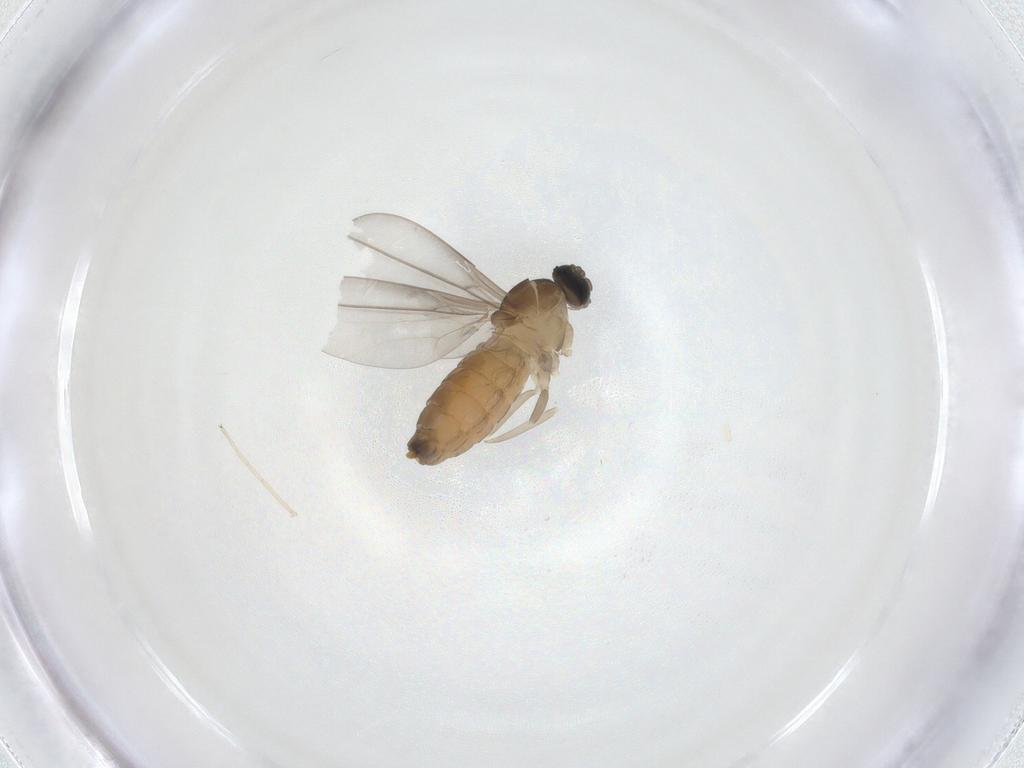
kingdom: Animalia
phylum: Arthropoda
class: Insecta
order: Diptera
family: Cecidomyiidae
